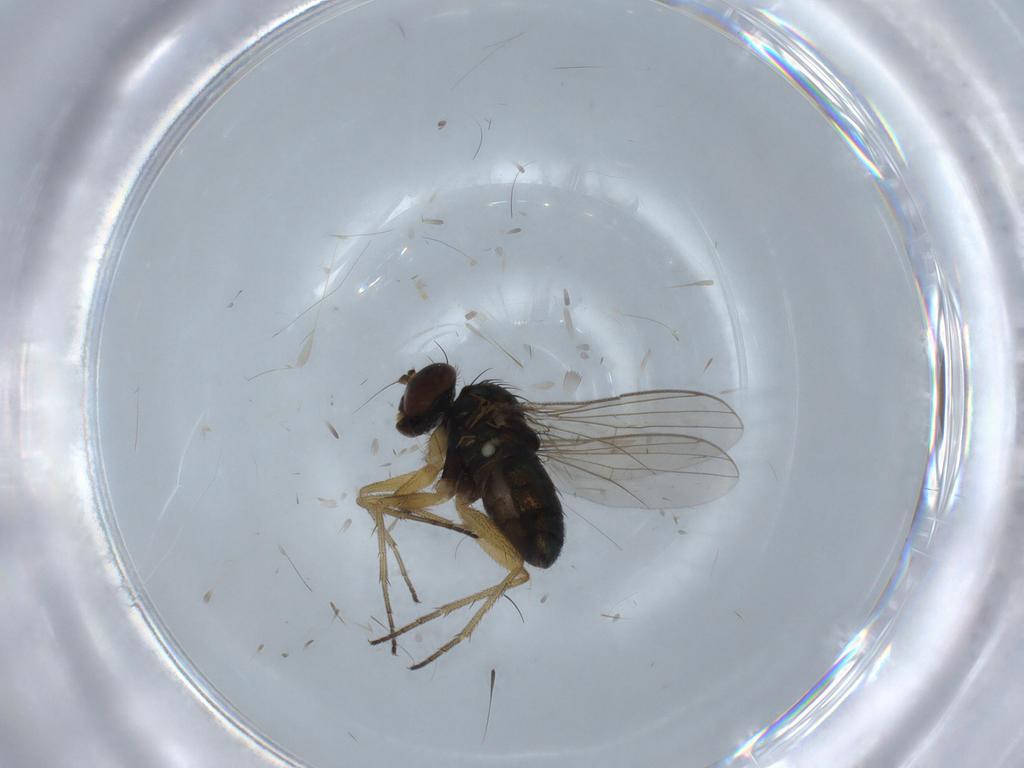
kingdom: Animalia
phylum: Arthropoda
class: Insecta
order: Diptera
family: Ceratopogonidae
